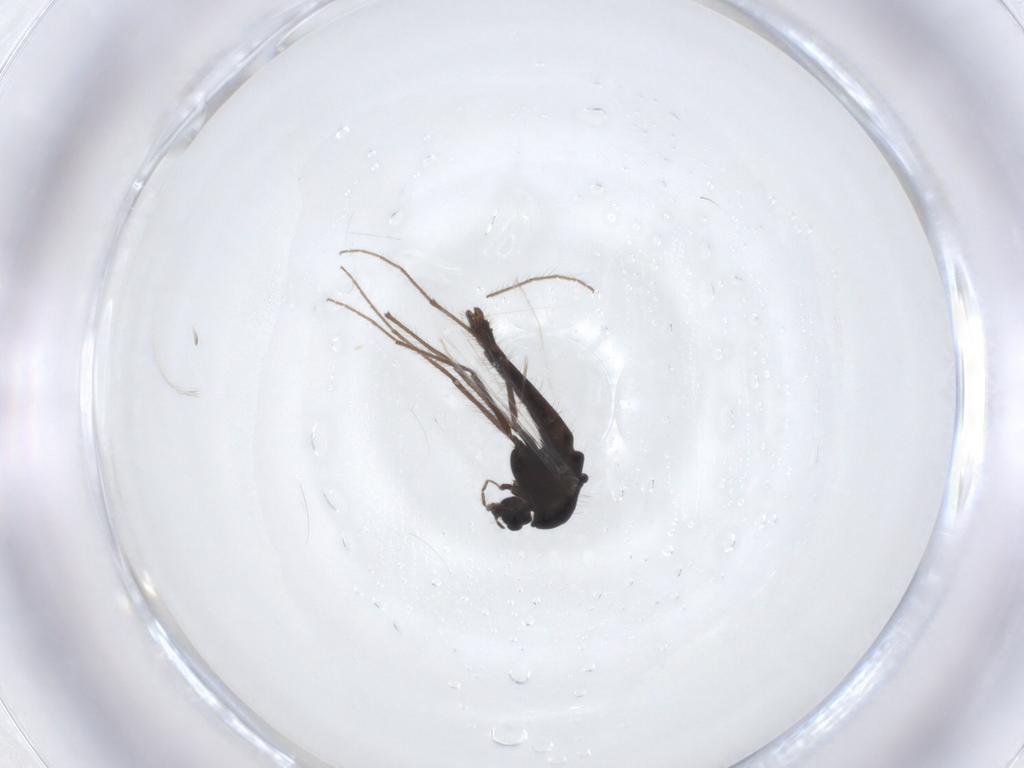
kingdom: Animalia
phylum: Arthropoda
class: Insecta
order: Diptera
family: Chironomidae
